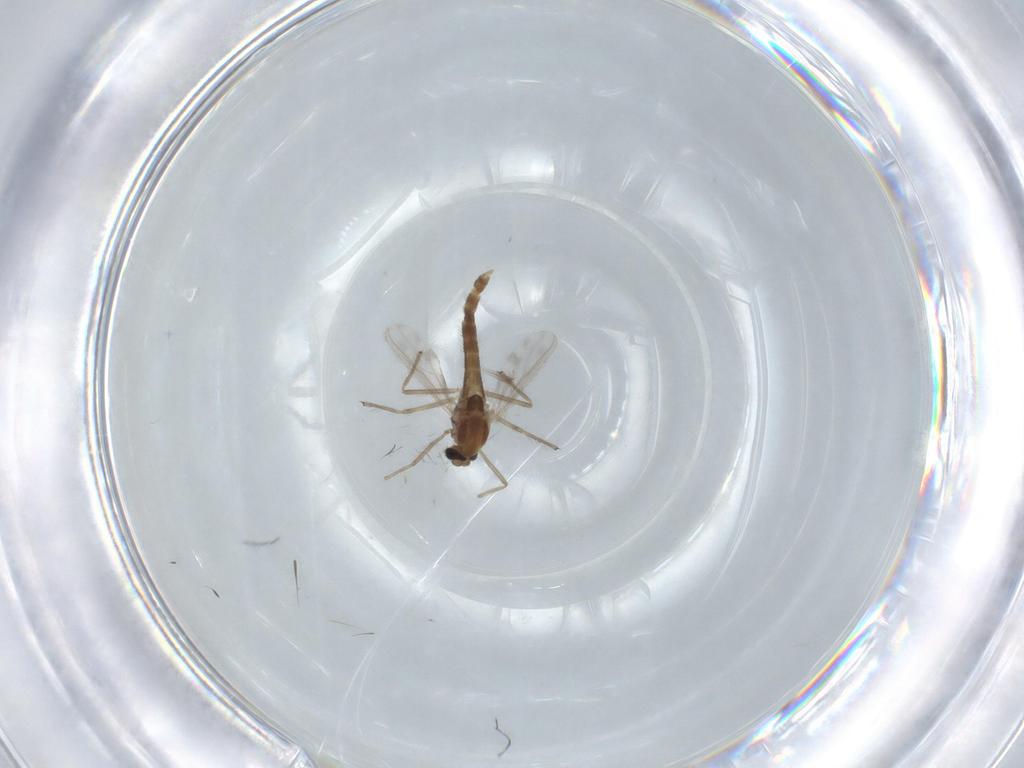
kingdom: Animalia
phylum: Arthropoda
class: Insecta
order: Diptera
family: Chironomidae
